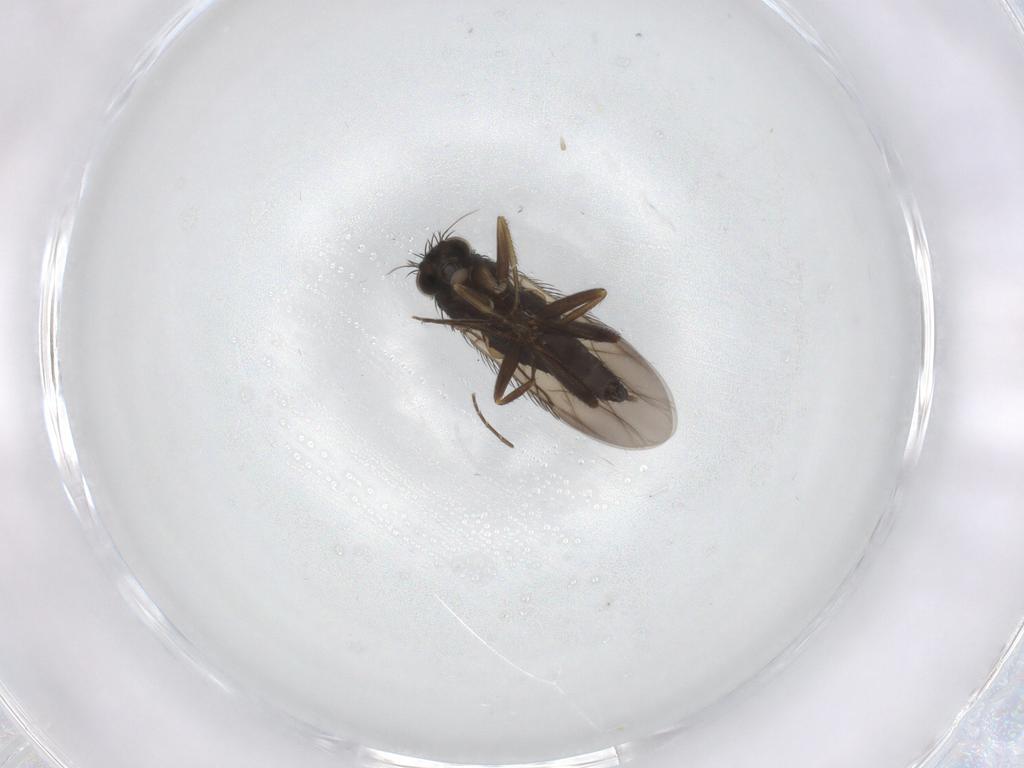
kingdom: Animalia
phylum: Arthropoda
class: Insecta
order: Diptera
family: Phoridae
